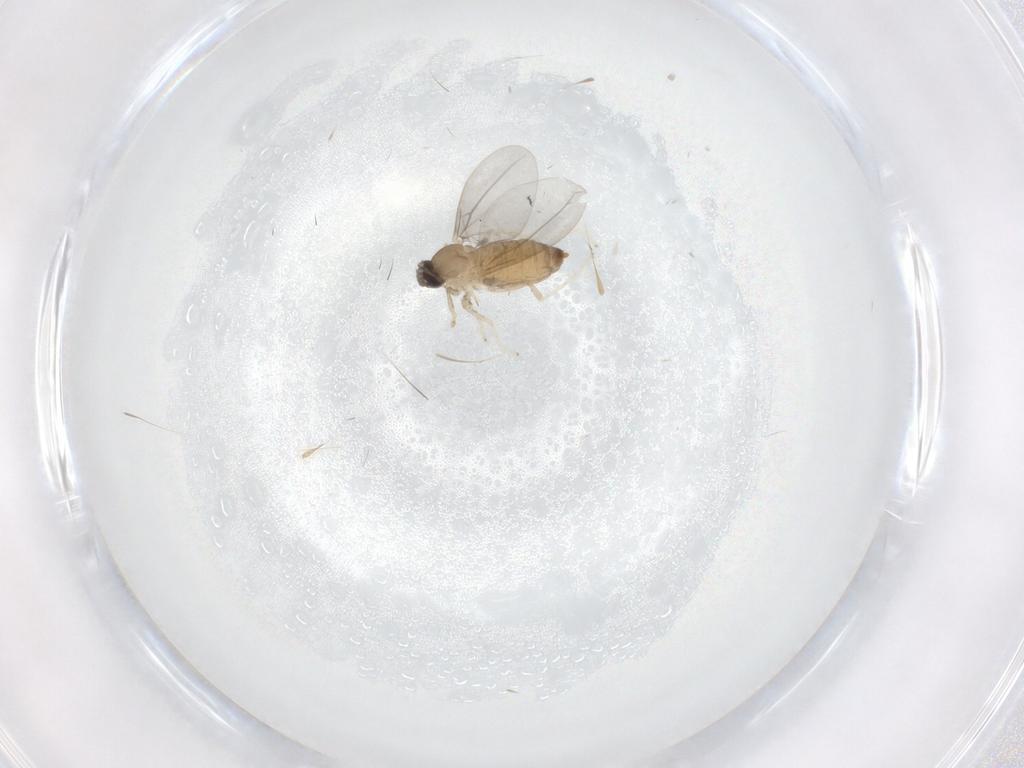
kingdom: Animalia
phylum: Arthropoda
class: Insecta
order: Diptera
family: Cecidomyiidae
